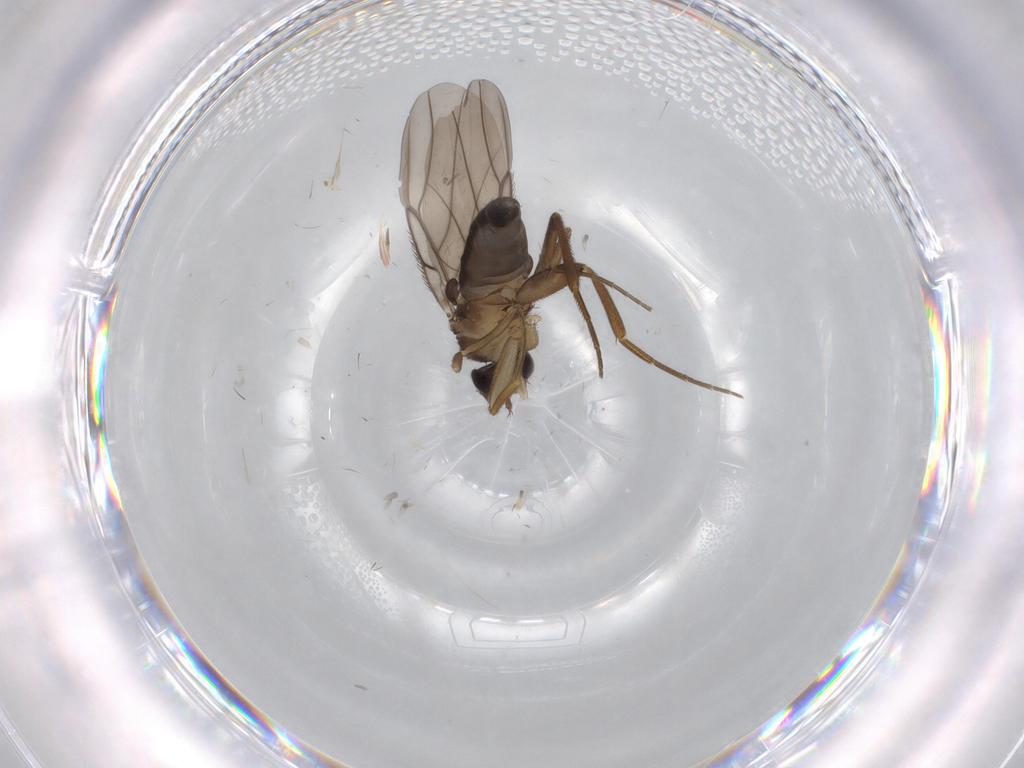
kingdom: Animalia
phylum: Arthropoda
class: Insecta
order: Diptera
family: Phoridae
